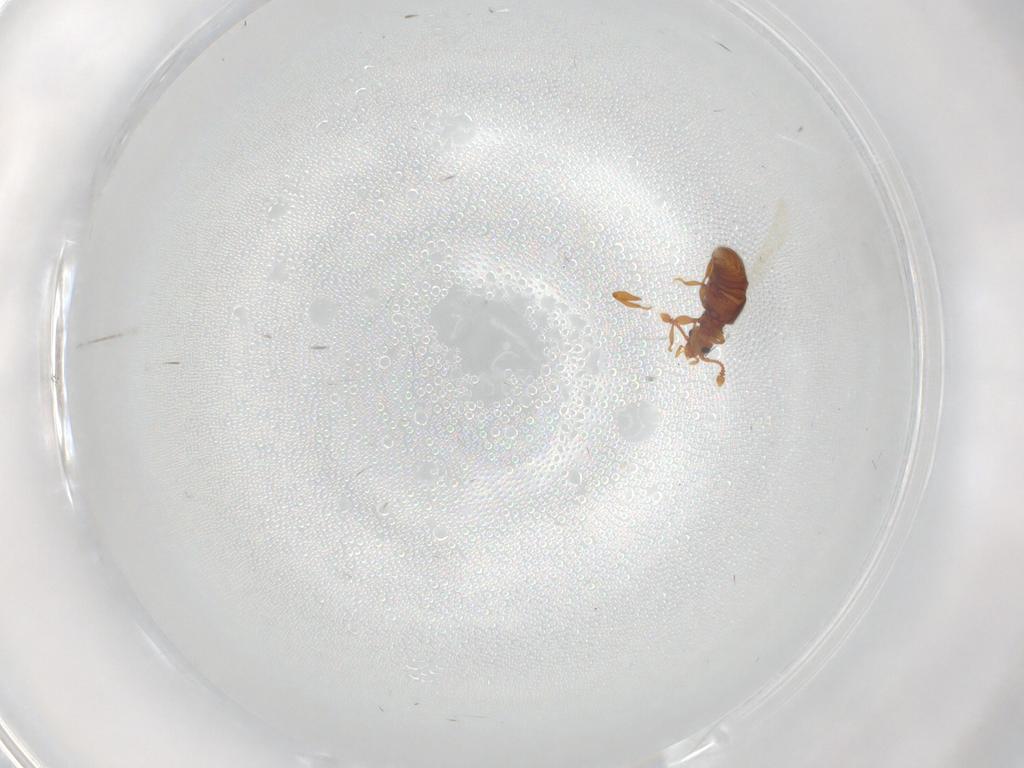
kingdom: Animalia
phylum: Arthropoda
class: Insecta
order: Coleoptera
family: Staphylinidae
